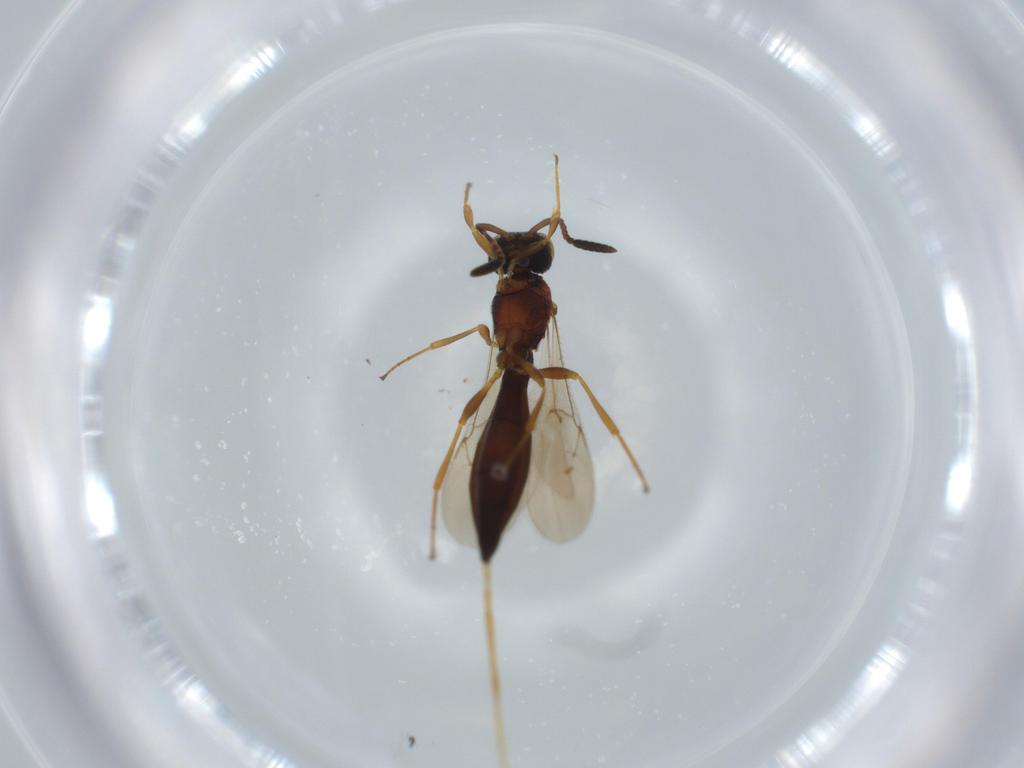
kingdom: Animalia
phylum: Arthropoda
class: Insecta
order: Hymenoptera
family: Scelionidae
